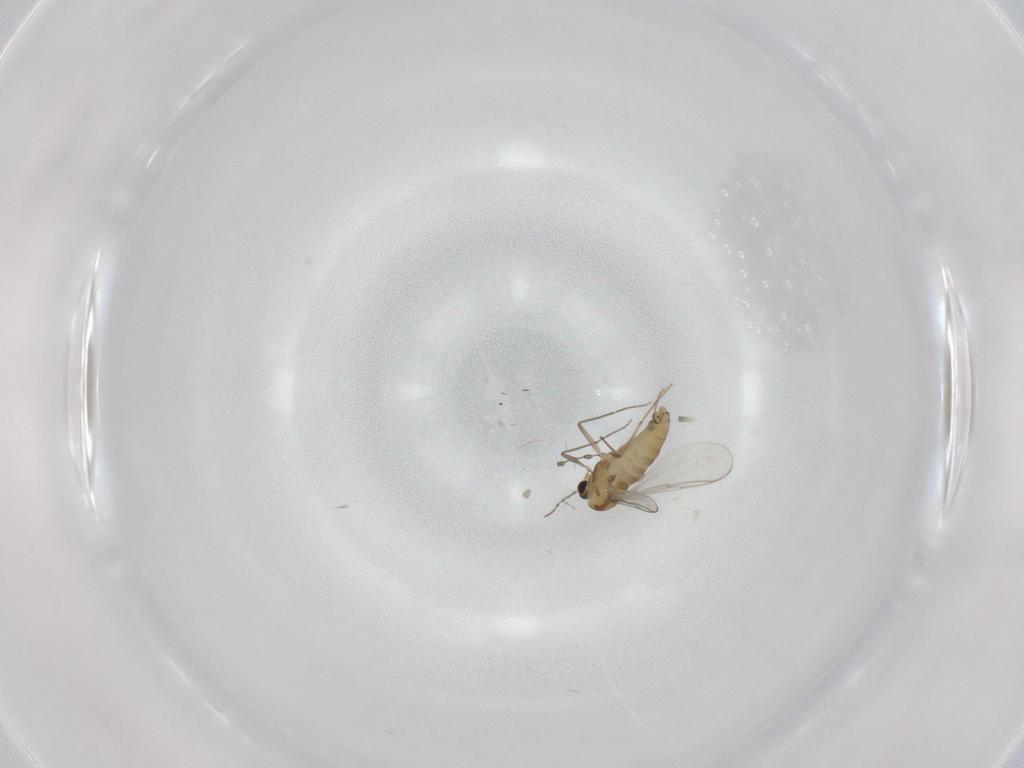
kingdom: Animalia
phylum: Arthropoda
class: Insecta
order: Diptera
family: Chironomidae
